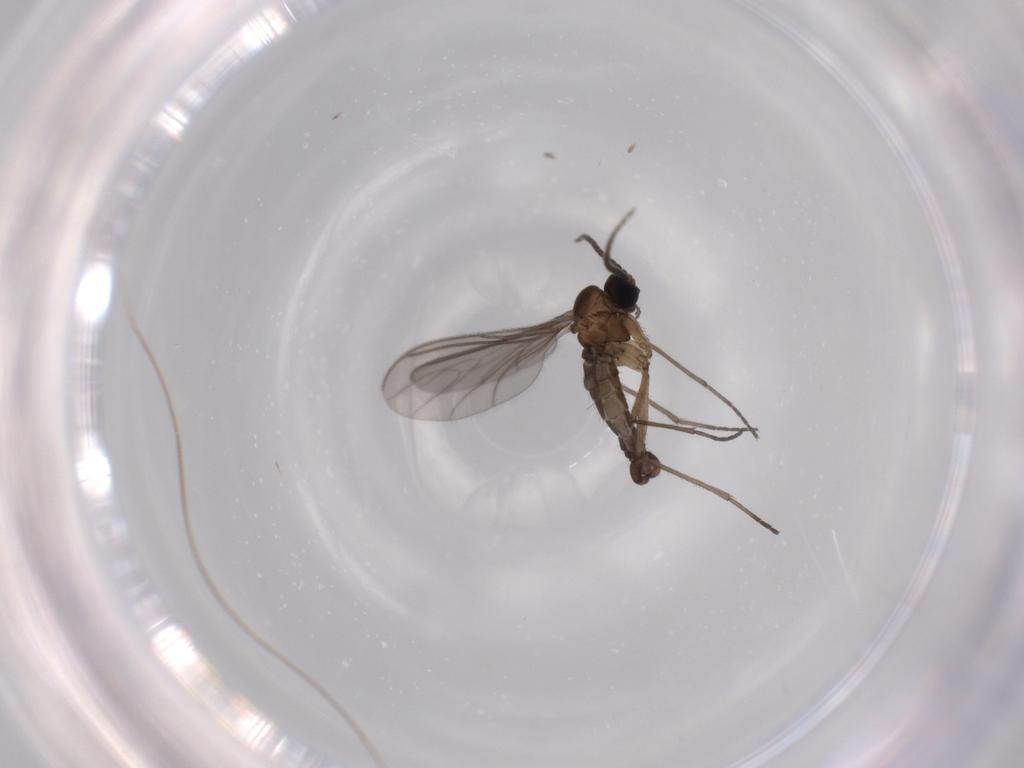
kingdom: Animalia
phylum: Arthropoda
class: Insecta
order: Diptera
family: Sciaridae
